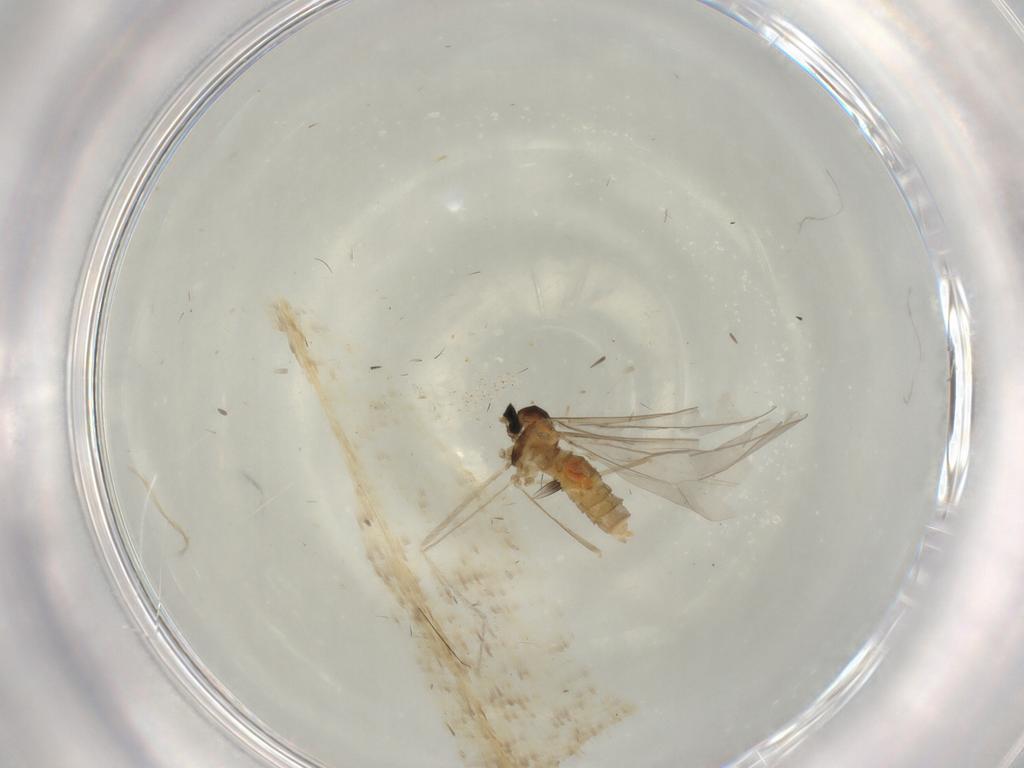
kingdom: Animalia
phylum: Arthropoda
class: Insecta
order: Diptera
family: Cecidomyiidae
